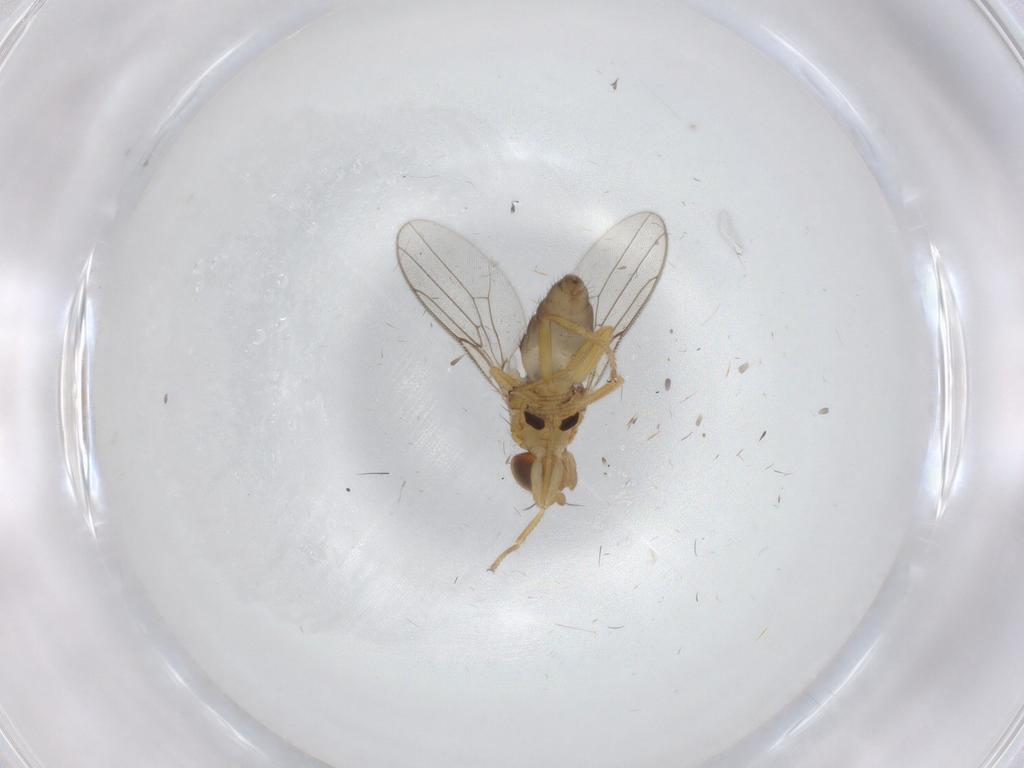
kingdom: Animalia
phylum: Arthropoda
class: Insecta
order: Diptera
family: Chloropidae
